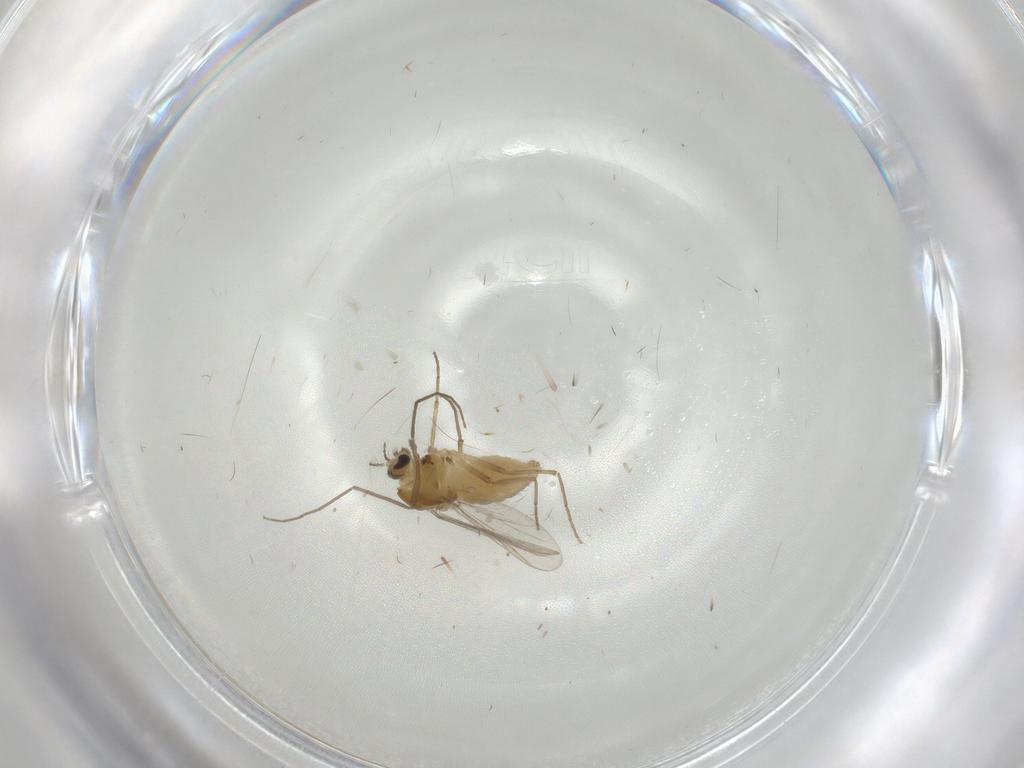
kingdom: Animalia
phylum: Arthropoda
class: Insecta
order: Diptera
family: Chironomidae
